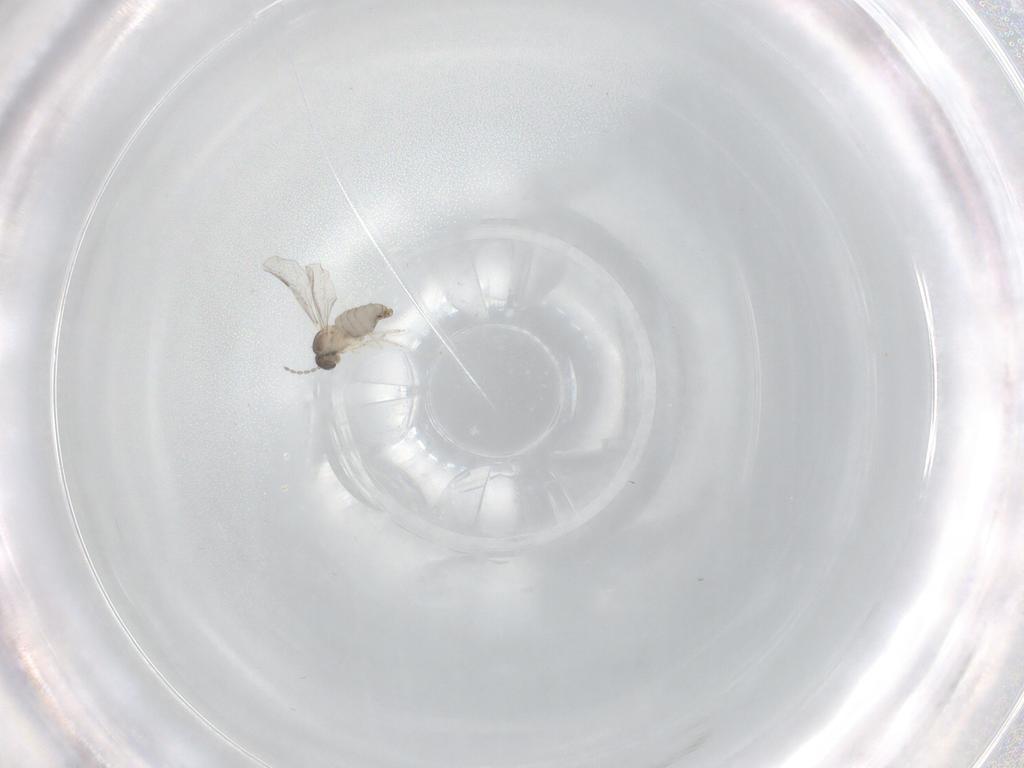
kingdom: Animalia
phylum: Arthropoda
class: Insecta
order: Diptera
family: Cecidomyiidae
